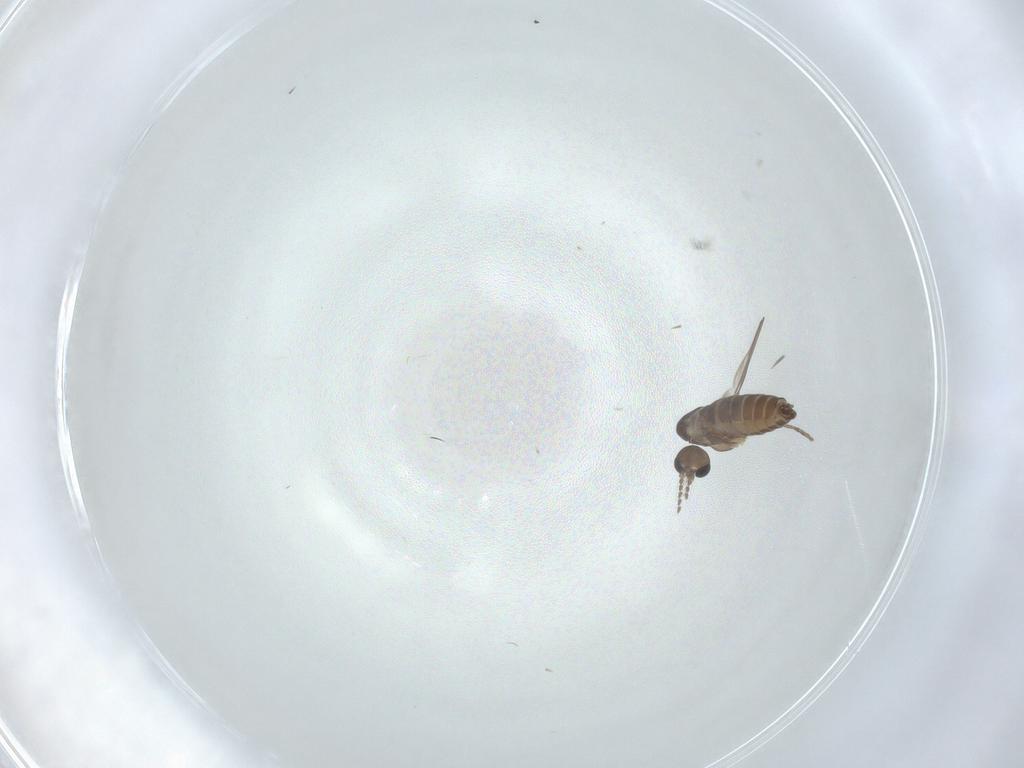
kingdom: Animalia
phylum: Arthropoda
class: Insecta
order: Diptera
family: Psychodidae
